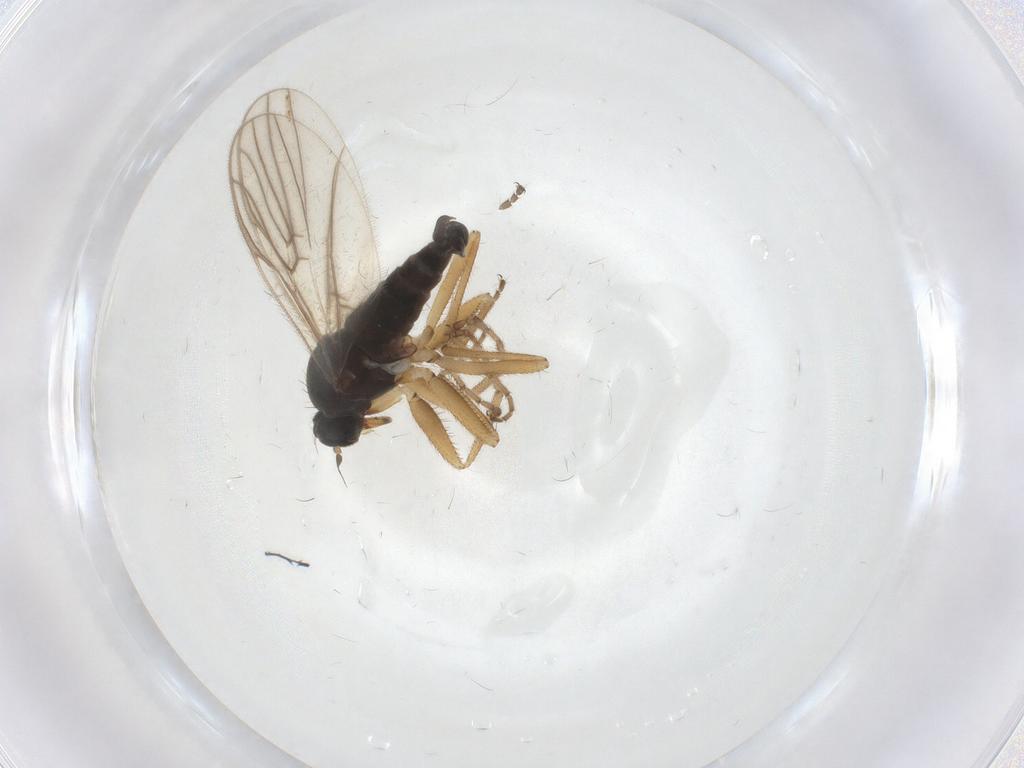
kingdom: Animalia
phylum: Arthropoda
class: Insecta
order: Diptera
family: Hybotidae
